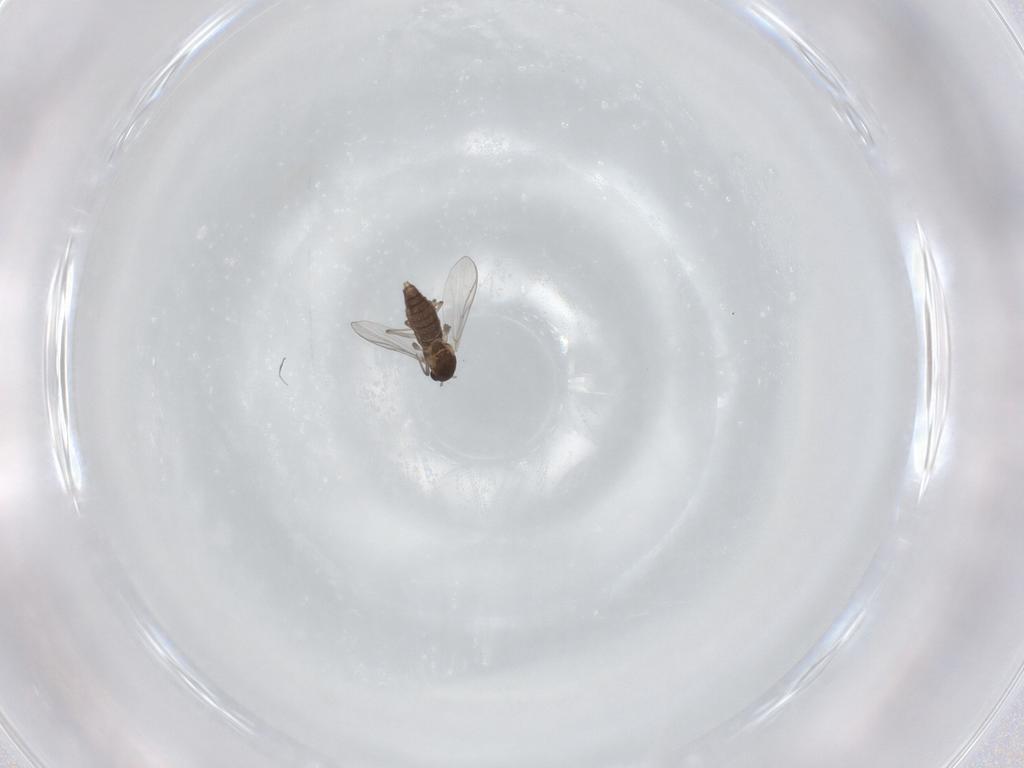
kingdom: Animalia
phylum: Arthropoda
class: Insecta
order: Diptera
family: Chironomidae
